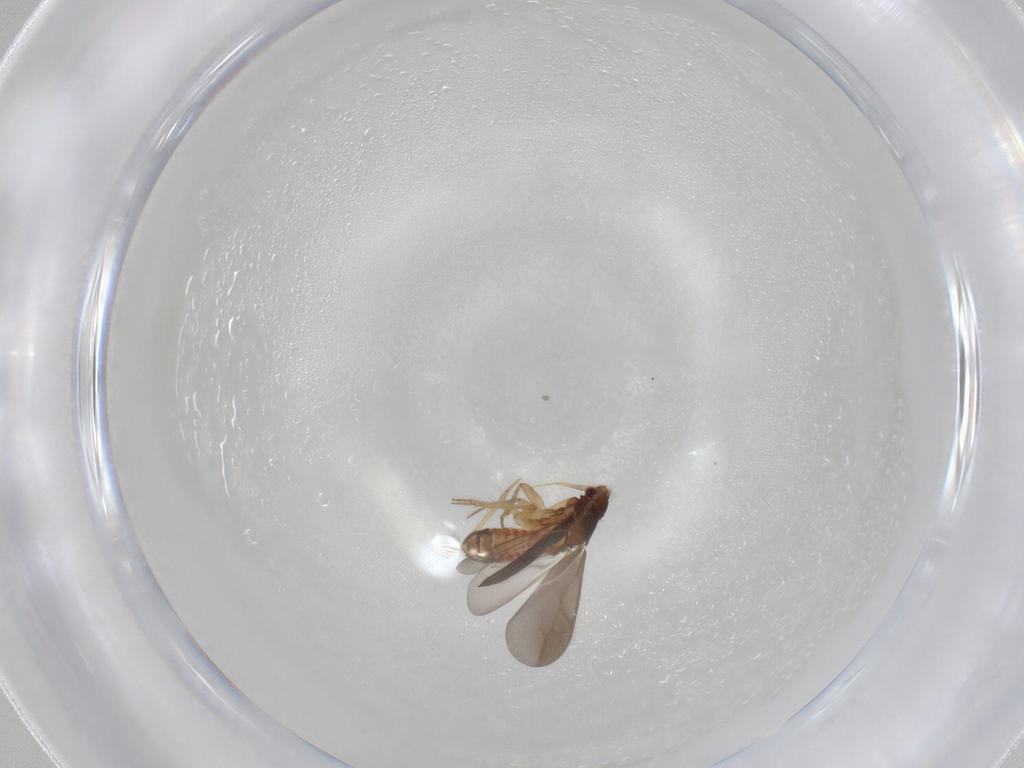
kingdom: Animalia
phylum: Arthropoda
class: Insecta
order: Hemiptera
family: Ceratocombidae
